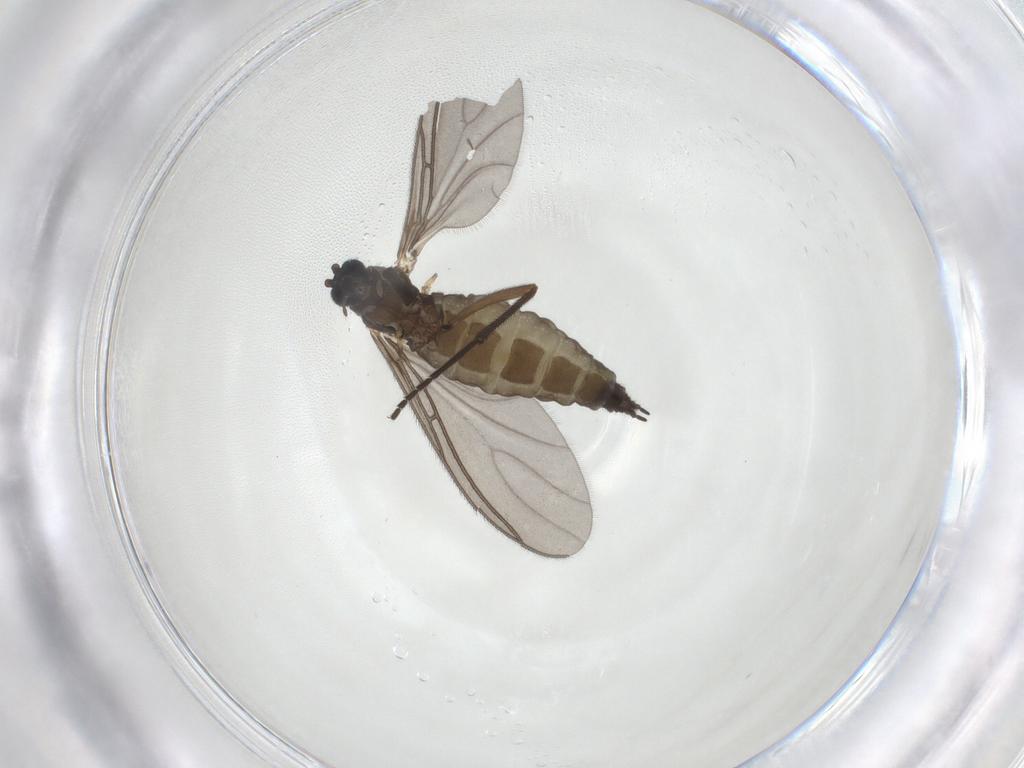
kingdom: Animalia
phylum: Arthropoda
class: Insecta
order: Diptera
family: Sciaridae
